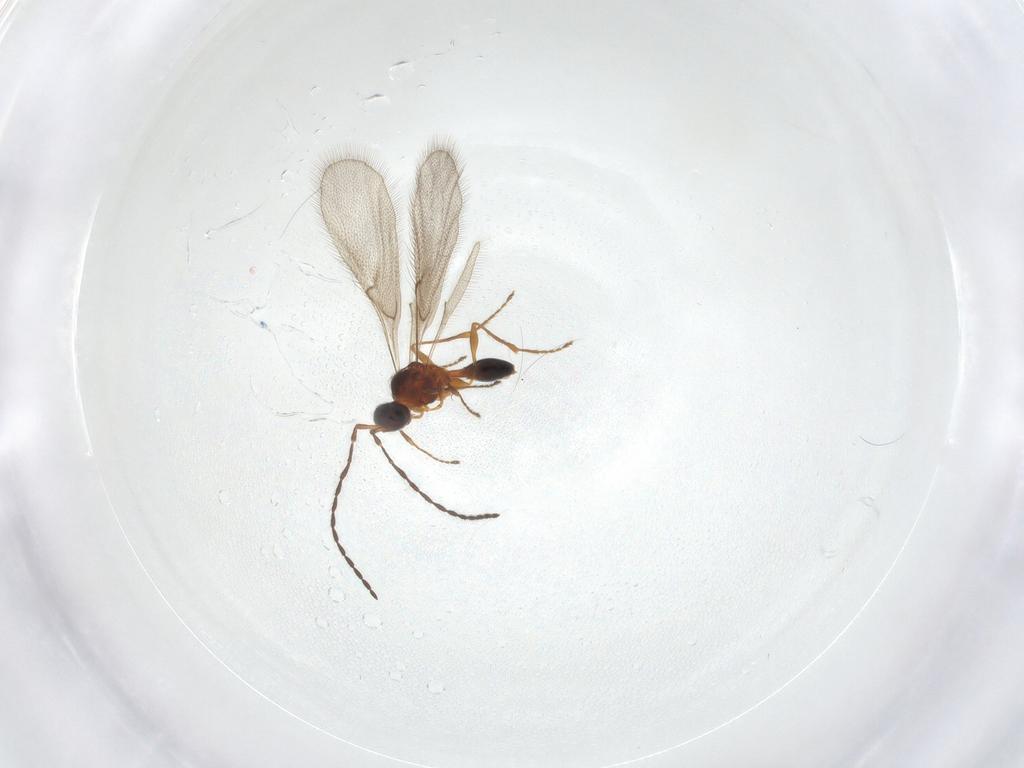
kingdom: Animalia
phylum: Arthropoda
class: Insecta
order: Hymenoptera
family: Diapriidae
